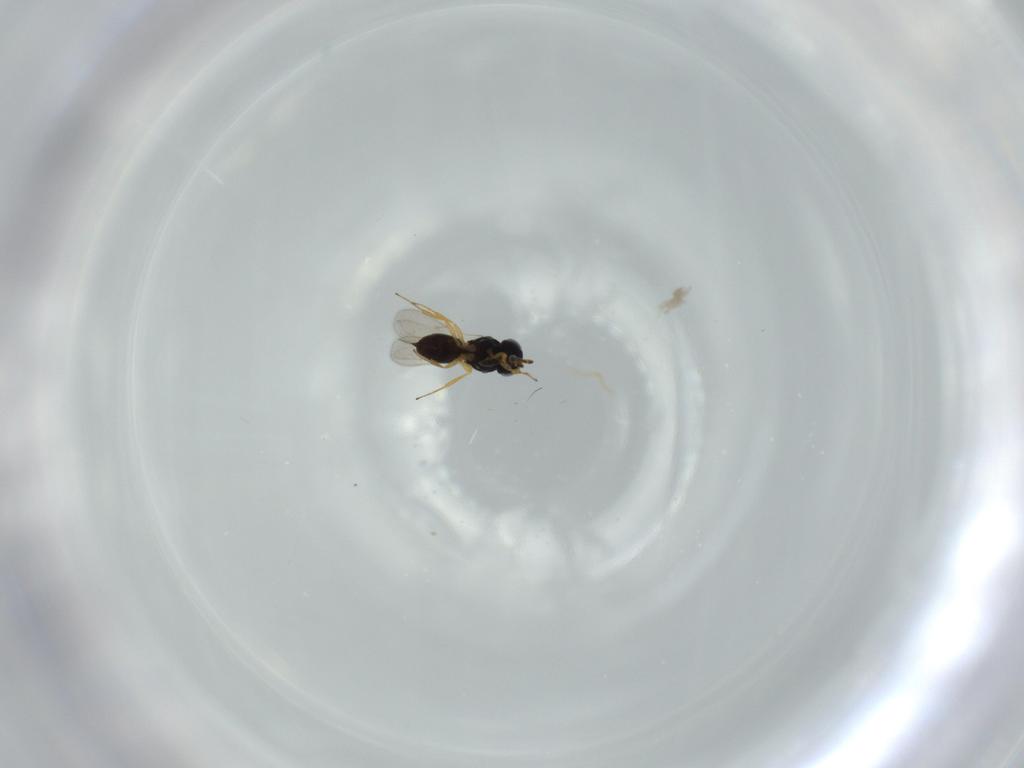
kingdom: Animalia
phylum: Arthropoda
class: Insecta
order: Hymenoptera
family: Scelionidae
